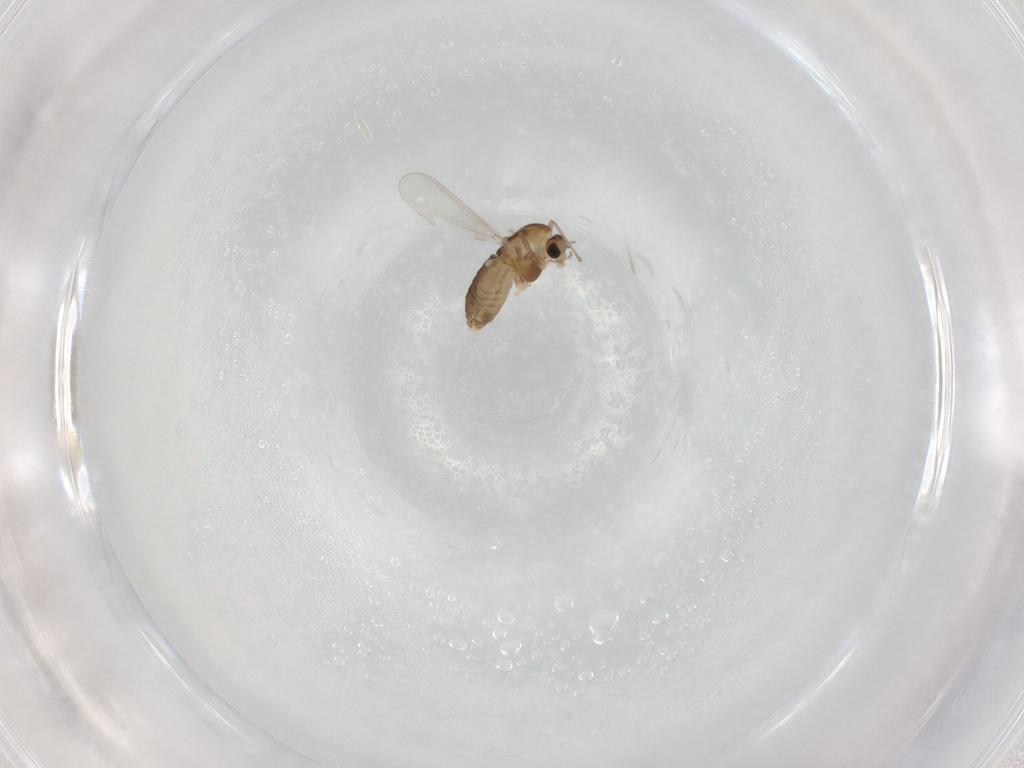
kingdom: Animalia
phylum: Arthropoda
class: Insecta
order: Diptera
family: Chironomidae
